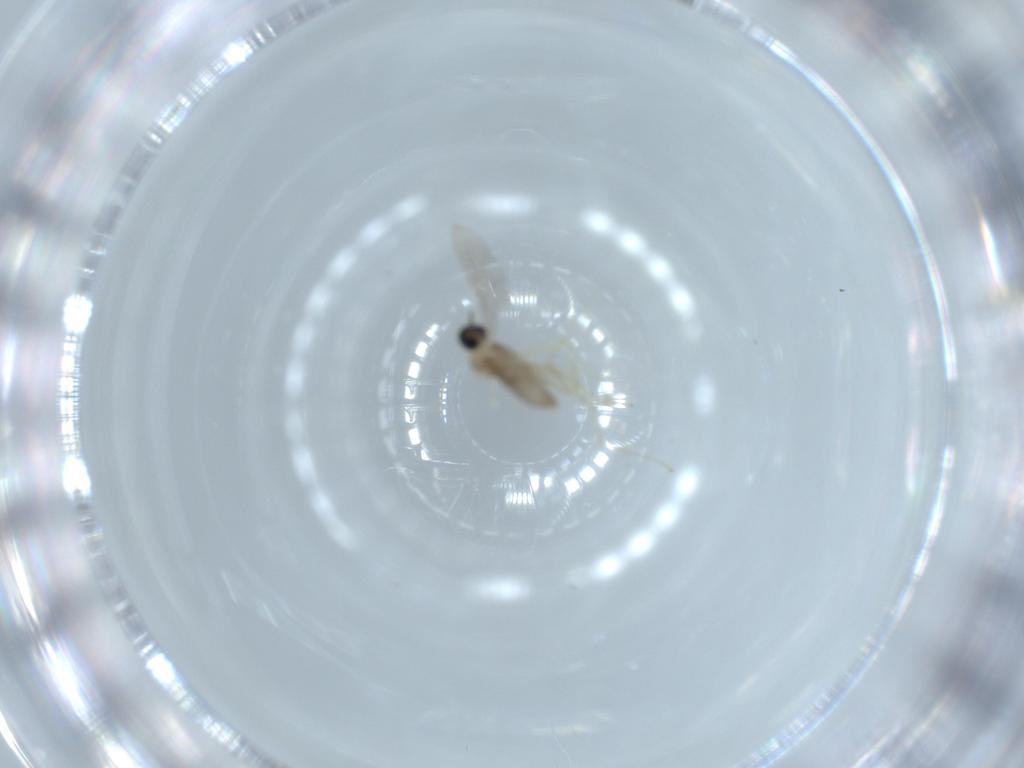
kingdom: Animalia
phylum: Arthropoda
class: Insecta
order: Diptera
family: Cecidomyiidae
